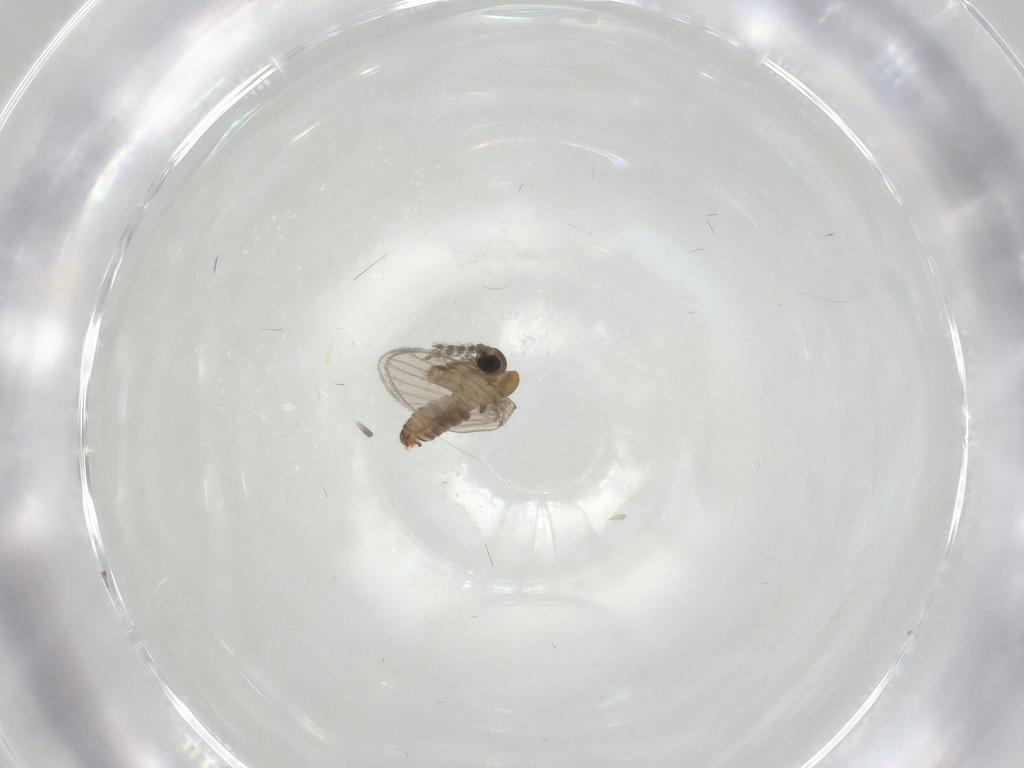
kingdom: Animalia
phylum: Arthropoda
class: Insecta
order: Diptera
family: Psychodidae
